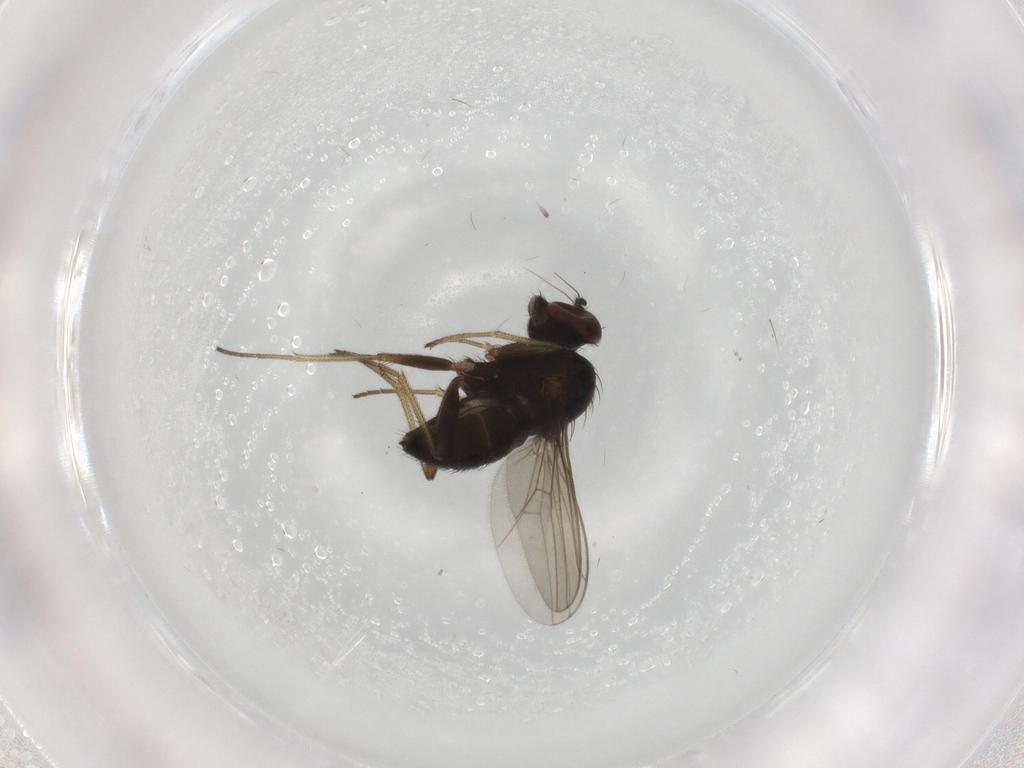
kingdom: Animalia
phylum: Arthropoda
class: Insecta
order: Diptera
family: Dolichopodidae
